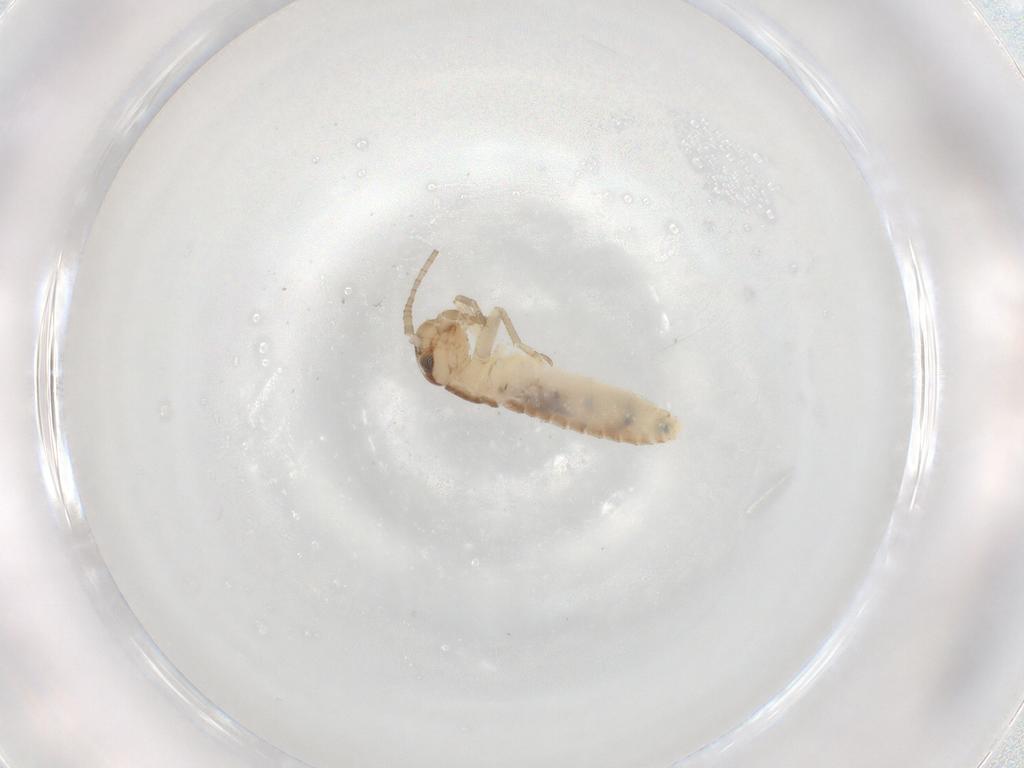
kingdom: Animalia
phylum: Arthropoda
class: Insecta
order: Orthoptera
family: Gryllidae
